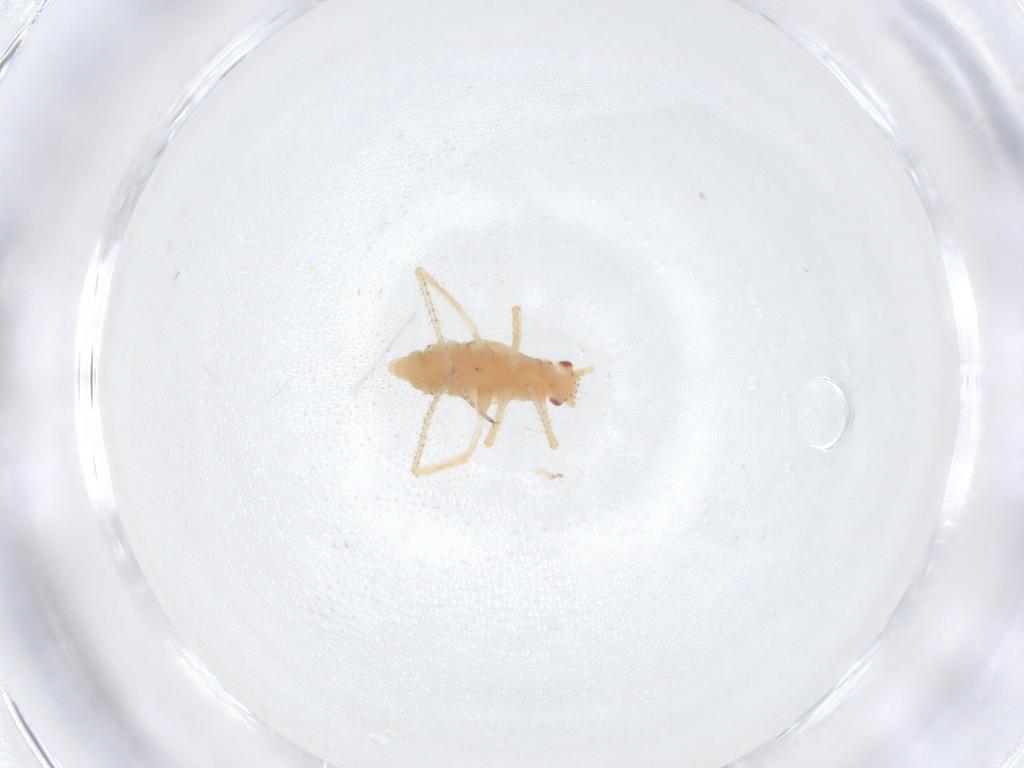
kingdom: Animalia
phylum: Arthropoda
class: Insecta
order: Hemiptera
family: Aphididae
